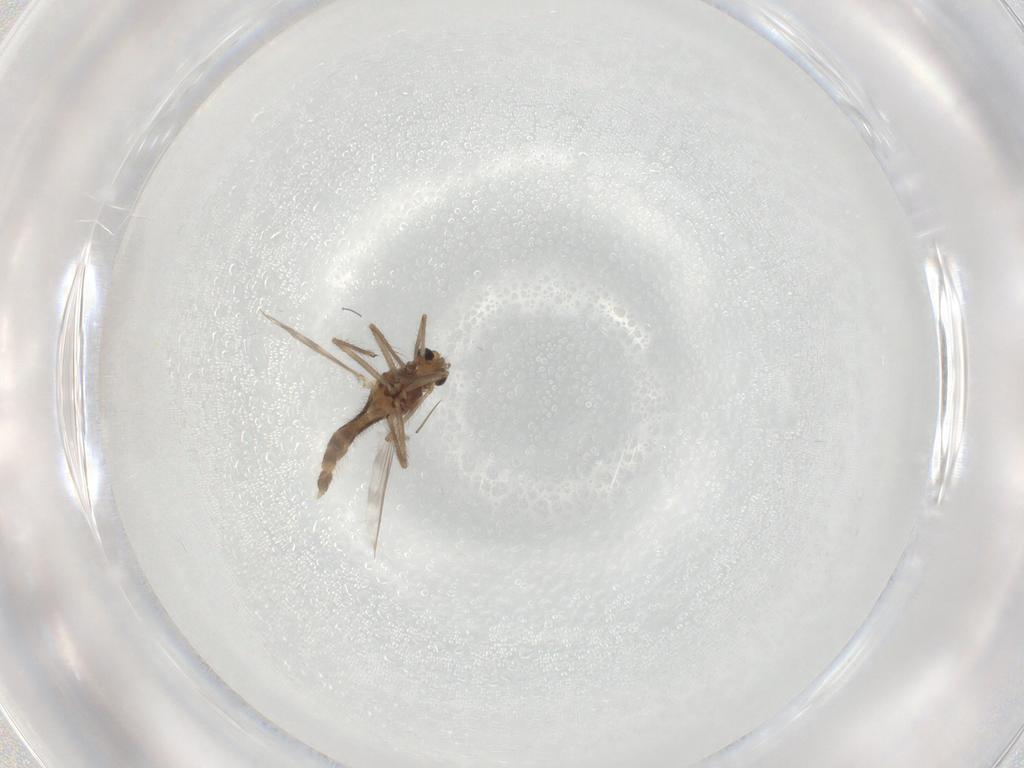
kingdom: Animalia
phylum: Arthropoda
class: Insecta
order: Diptera
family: Chironomidae
